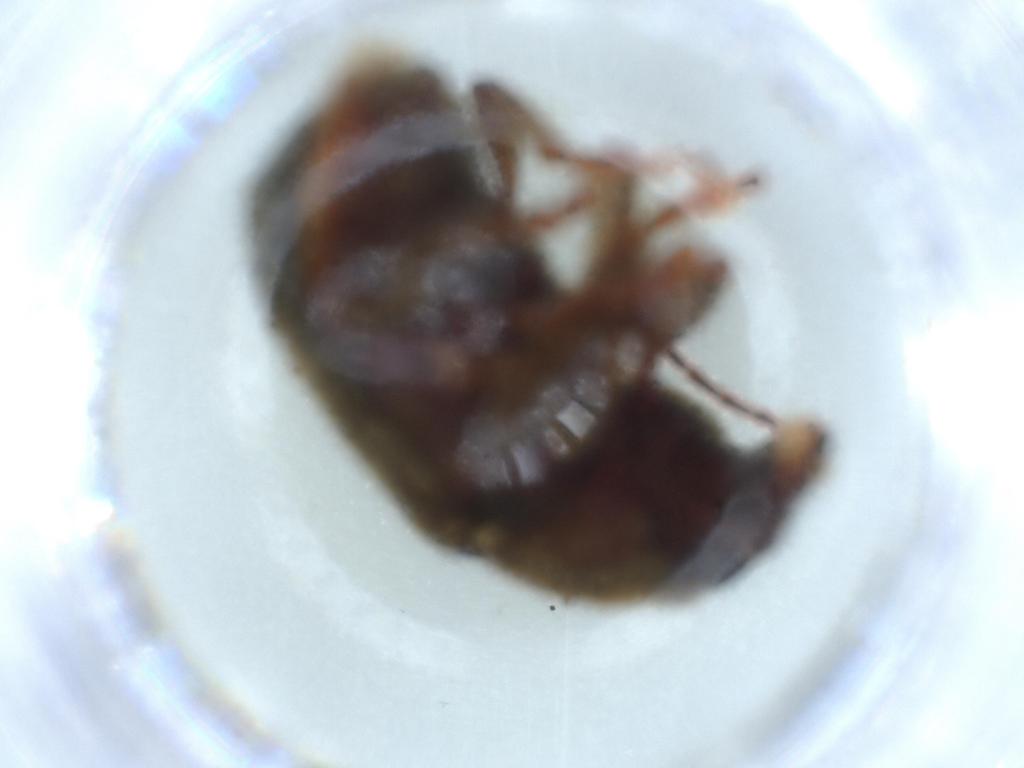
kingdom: Animalia
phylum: Arthropoda
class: Insecta
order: Coleoptera
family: Anthribidae
